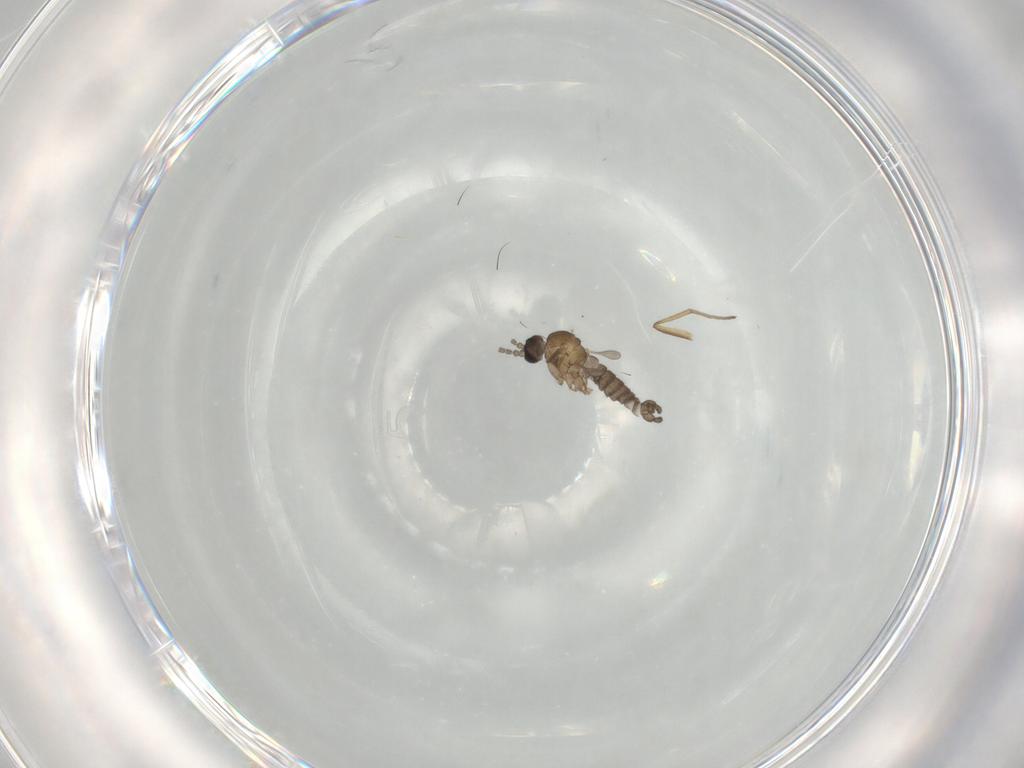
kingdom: Animalia
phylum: Arthropoda
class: Insecta
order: Diptera
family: Sciaridae
